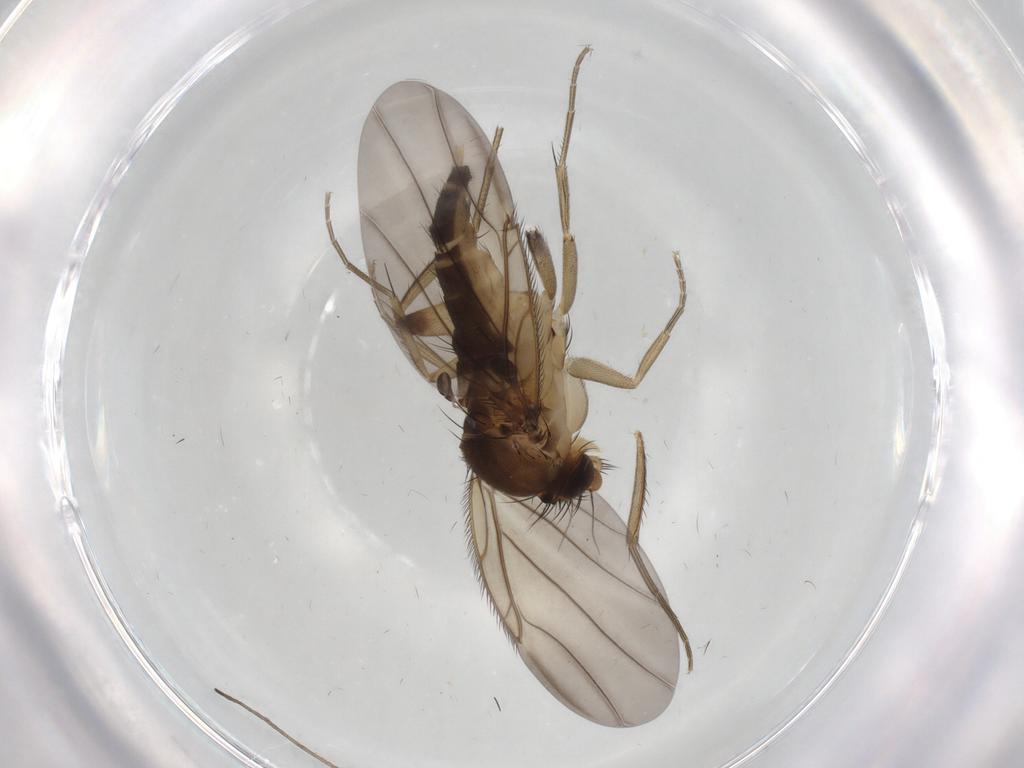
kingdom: Animalia
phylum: Arthropoda
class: Insecta
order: Diptera
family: Phoridae
